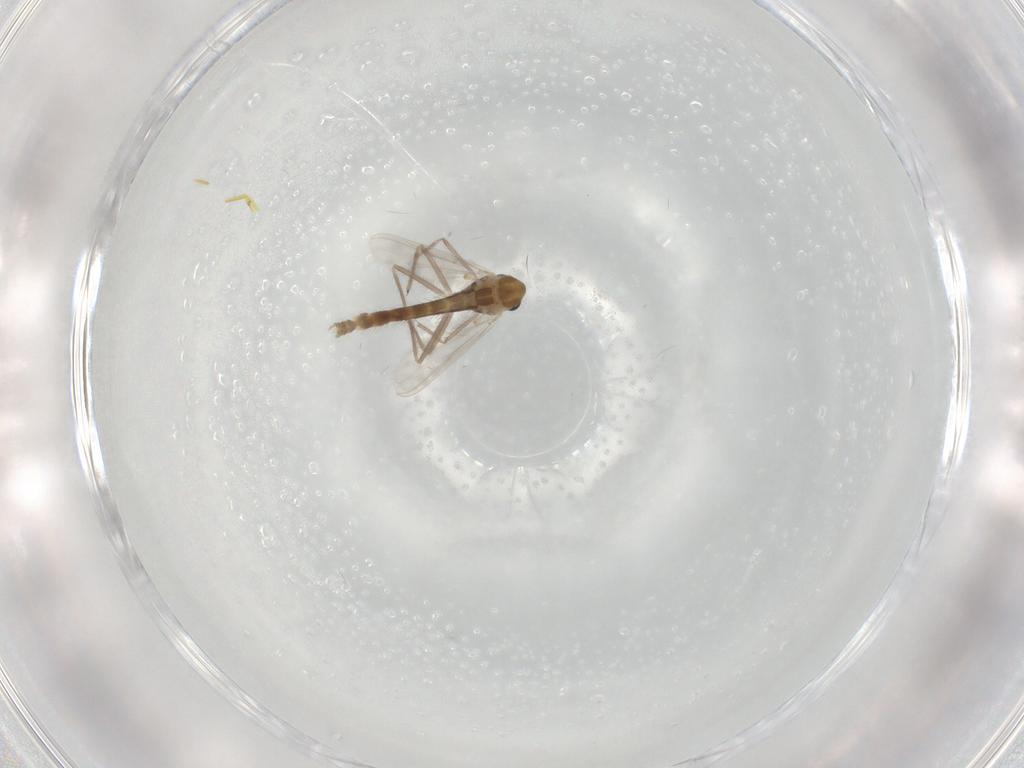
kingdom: Animalia
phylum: Arthropoda
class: Insecta
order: Diptera
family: Chironomidae
